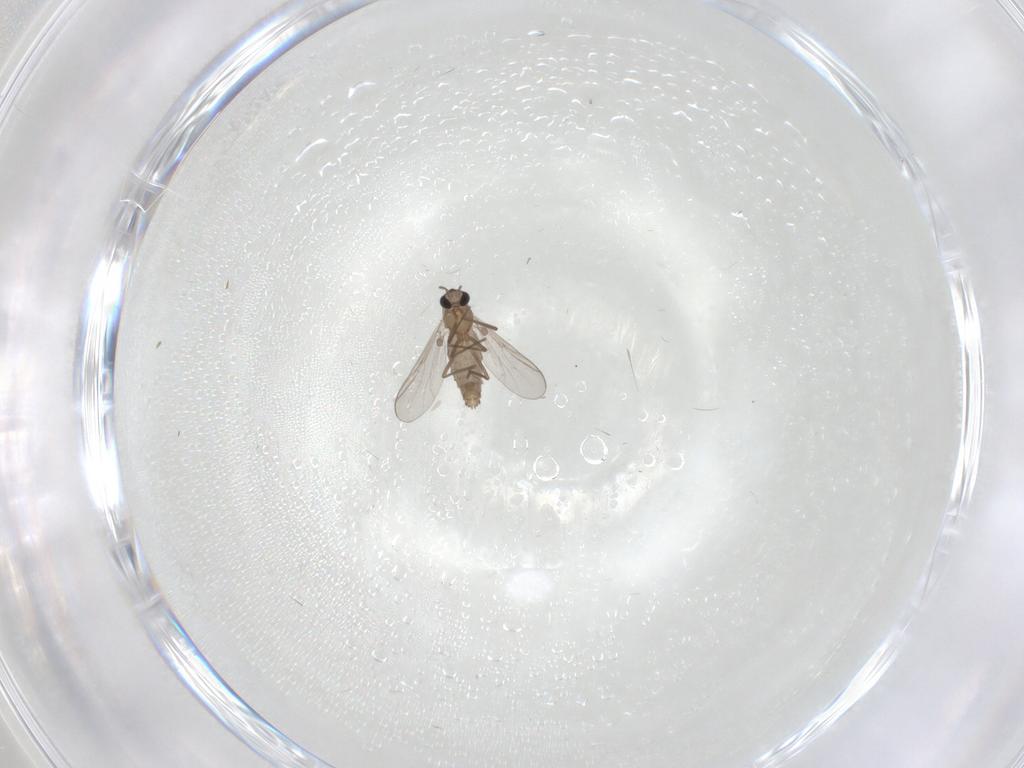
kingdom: Animalia
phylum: Arthropoda
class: Insecta
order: Diptera
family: Chironomidae
